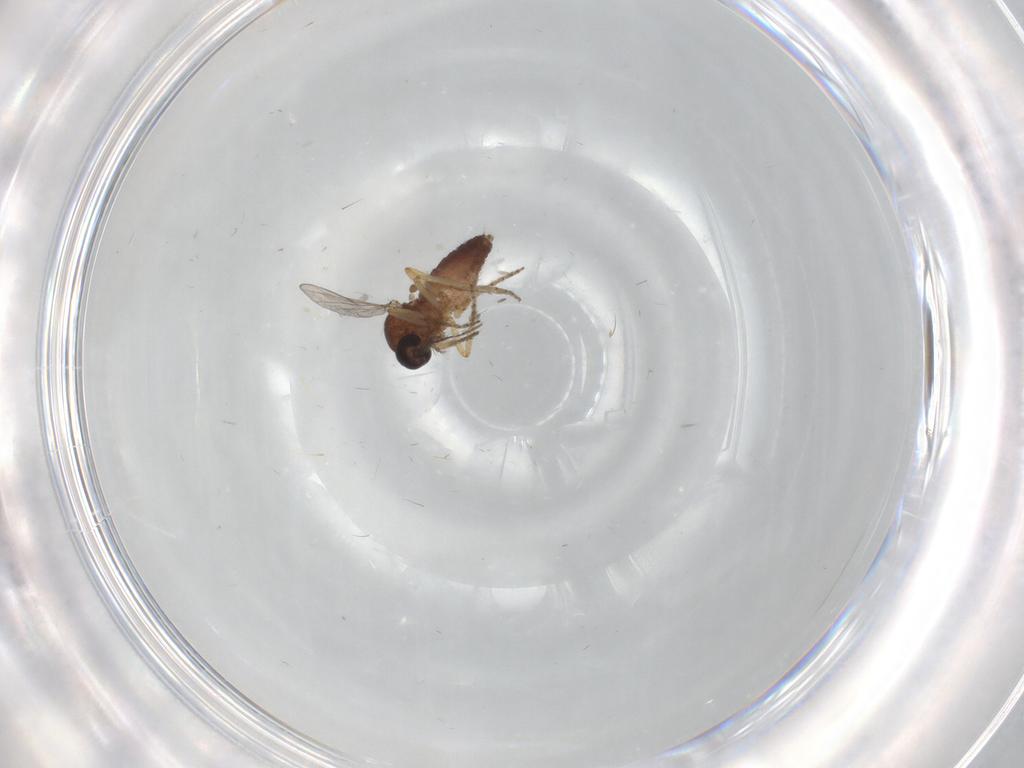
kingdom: Animalia
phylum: Arthropoda
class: Insecta
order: Diptera
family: Ceratopogonidae
